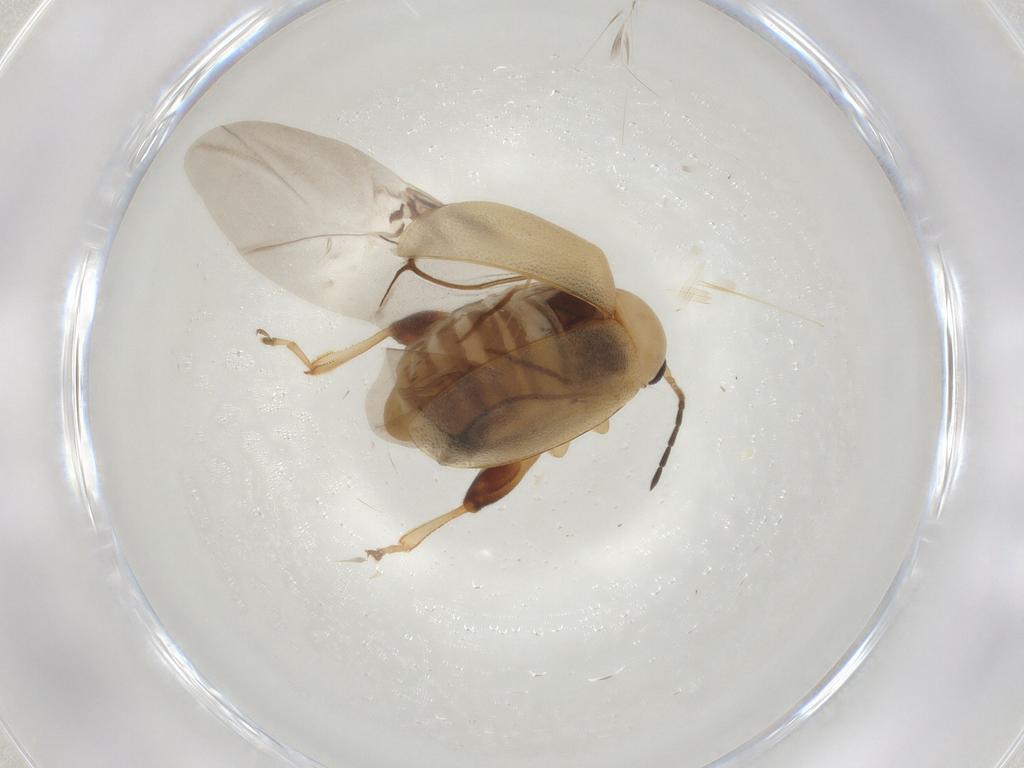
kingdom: Animalia
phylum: Arthropoda
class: Insecta
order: Coleoptera
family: Chrysomelidae
